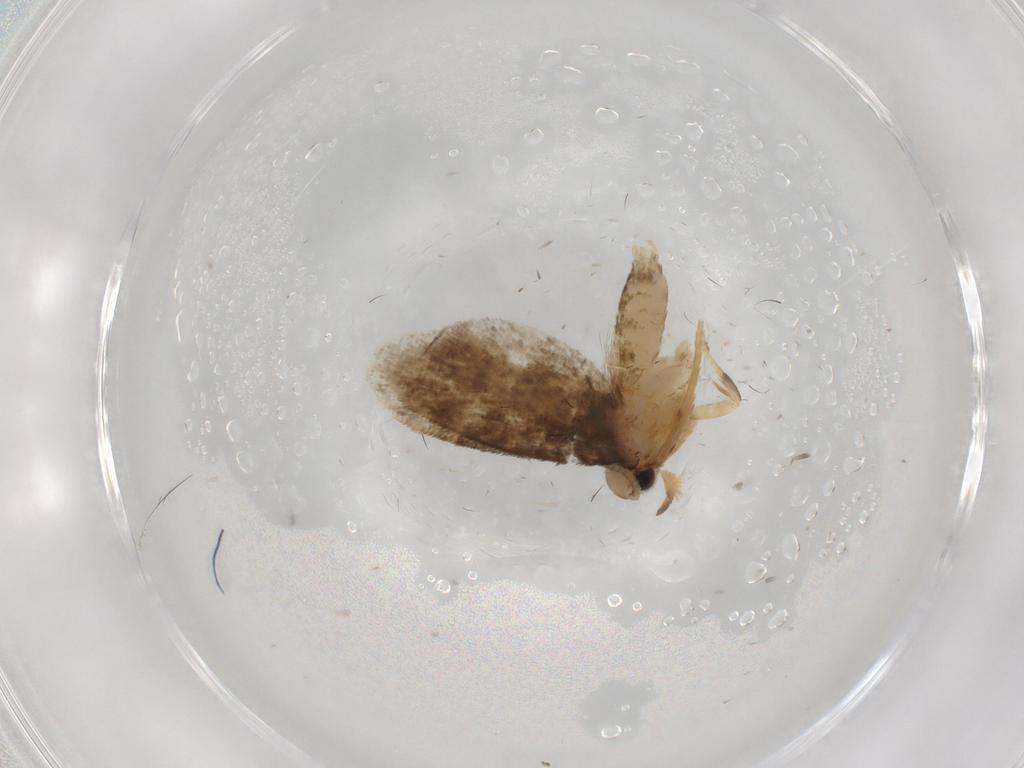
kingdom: Animalia
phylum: Arthropoda
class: Insecta
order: Lepidoptera
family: Psychidae
